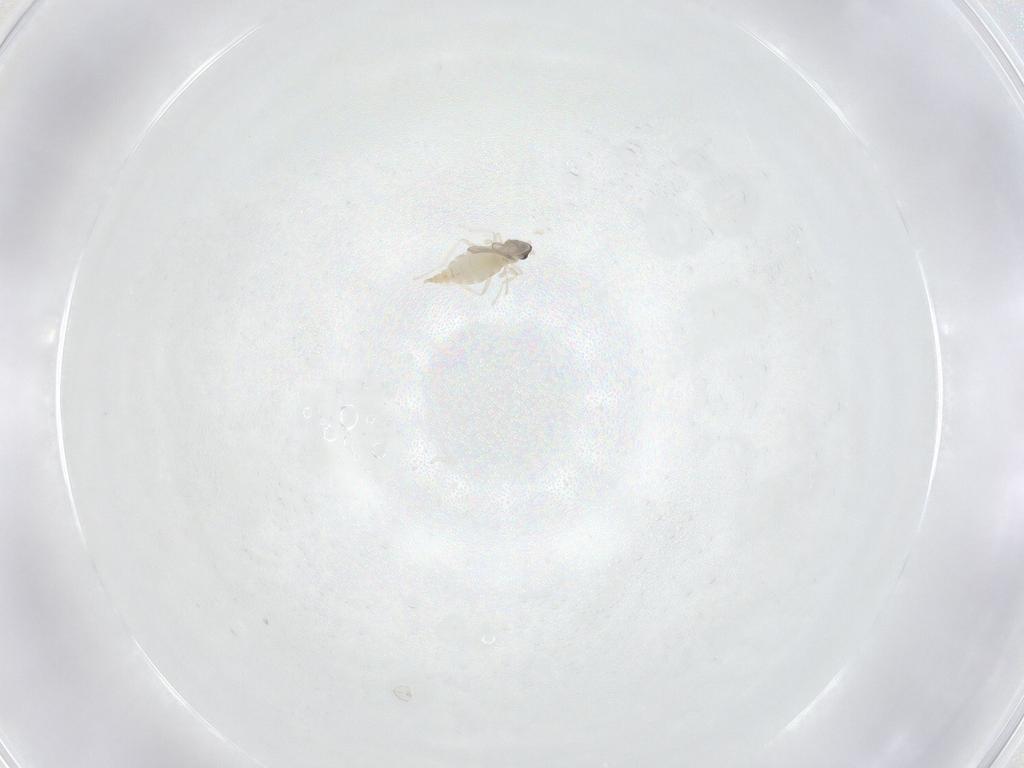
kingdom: Animalia
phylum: Arthropoda
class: Insecta
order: Diptera
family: Cecidomyiidae
